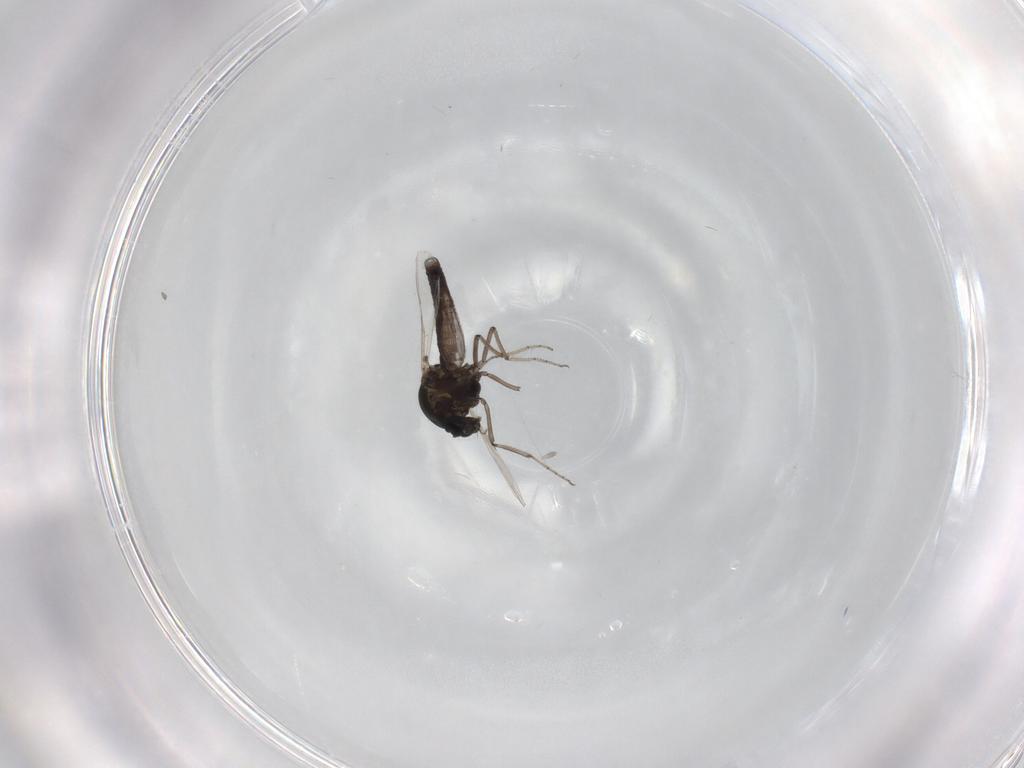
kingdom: Animalia
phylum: Arthropoda
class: Insecta
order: Diptera
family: Ceratopogonidae
